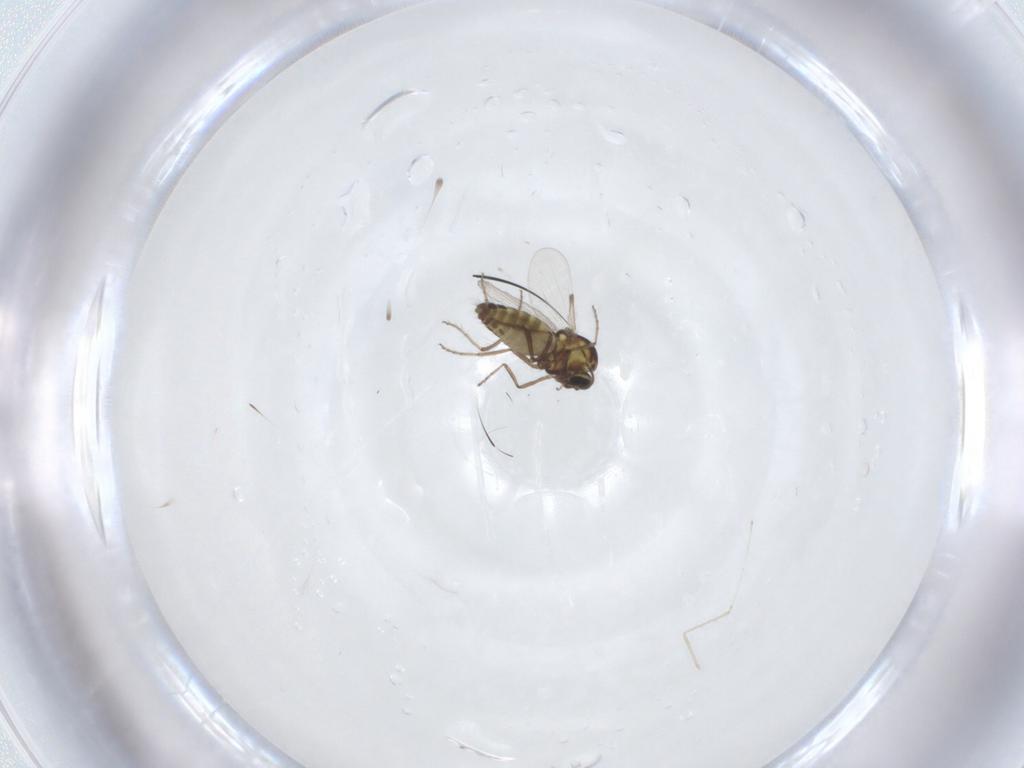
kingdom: Animalia
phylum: Arthropoda
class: Insecta
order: Diptera
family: Ceratopogonidae
